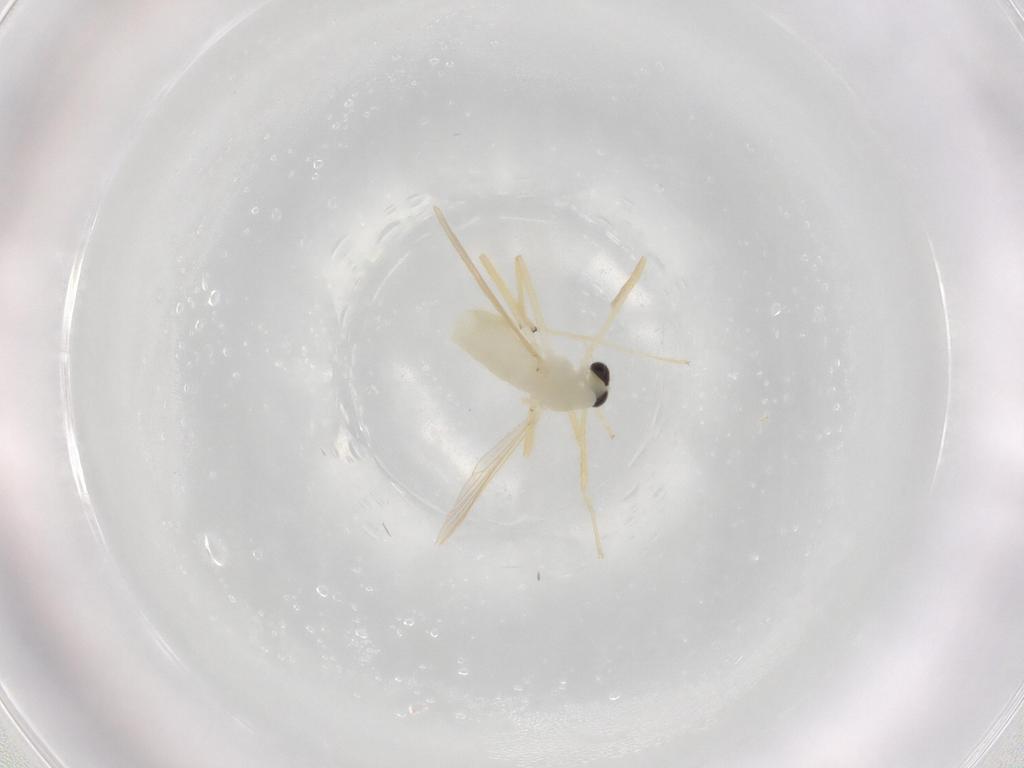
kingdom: Animalia
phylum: Arthropoda
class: Insecta
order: Diptera
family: Chironomidae
